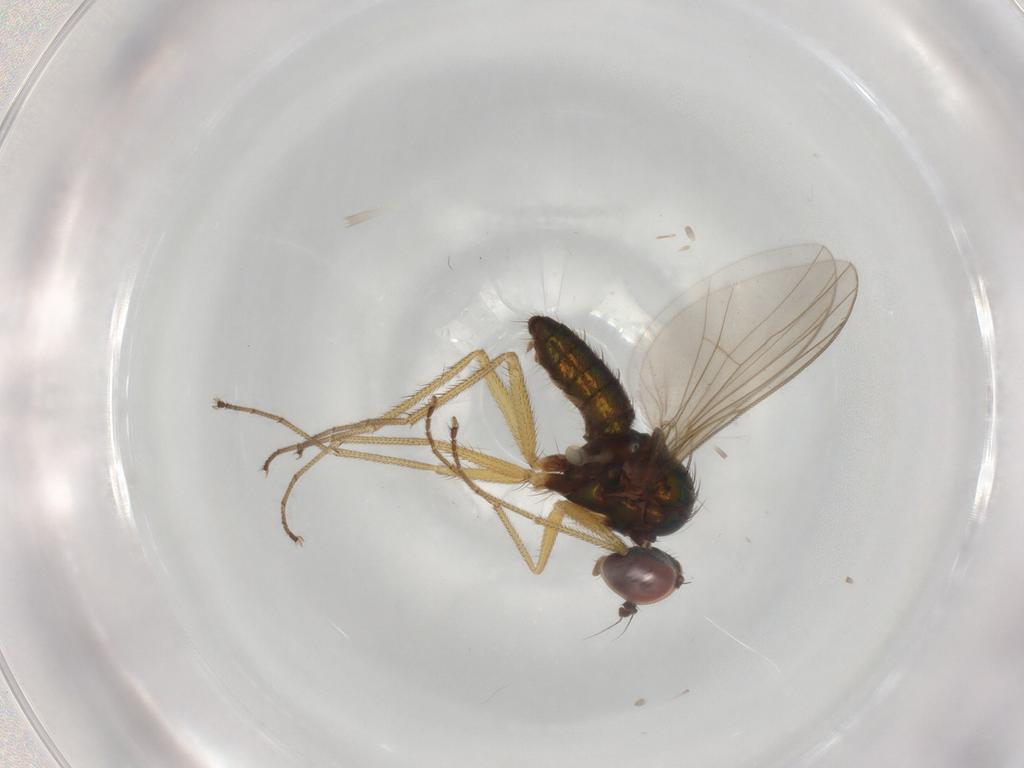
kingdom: Animalia
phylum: Arthropoda
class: Insecta
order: Diptera
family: Dolichopodidae
